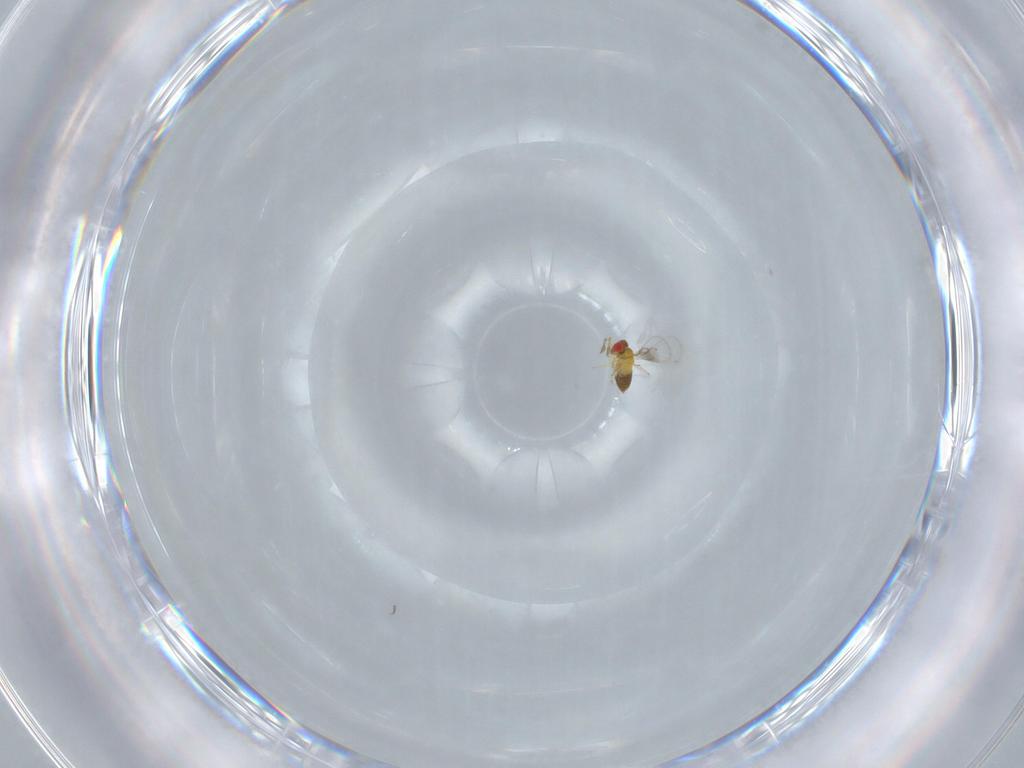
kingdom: Animalia
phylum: Arthropoda
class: Insecta
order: Hymenoptera
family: Trichogrammatidae
